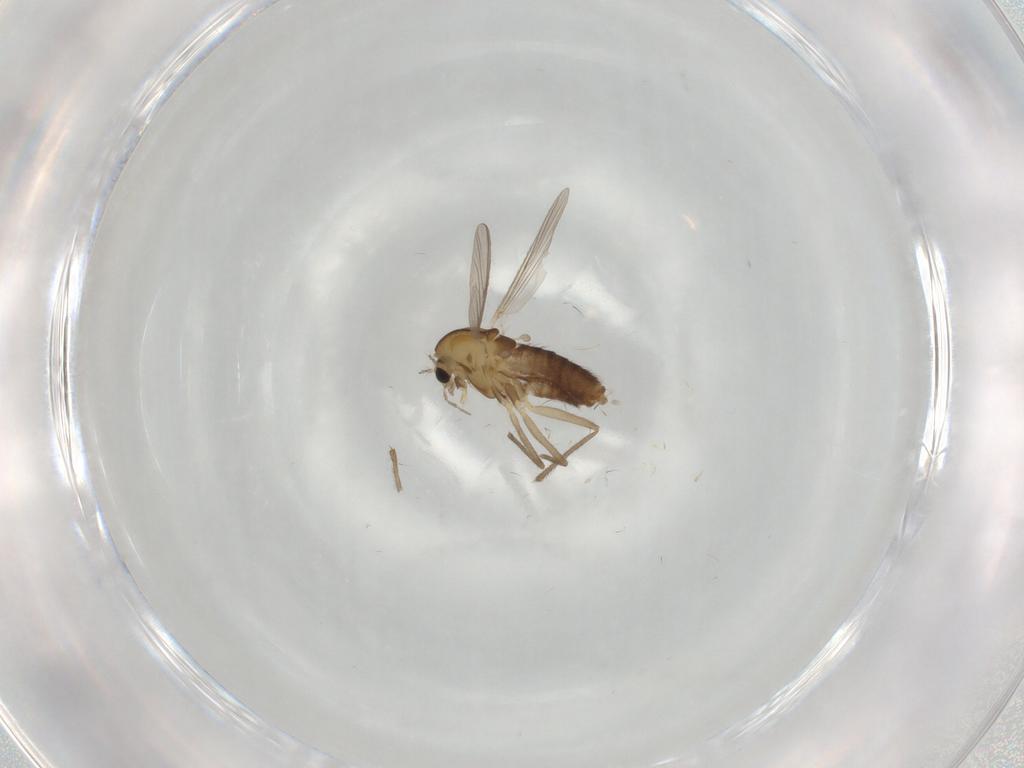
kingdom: Animalia
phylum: Arthropoda
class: Insecta
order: Diptera
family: Chironomidae
